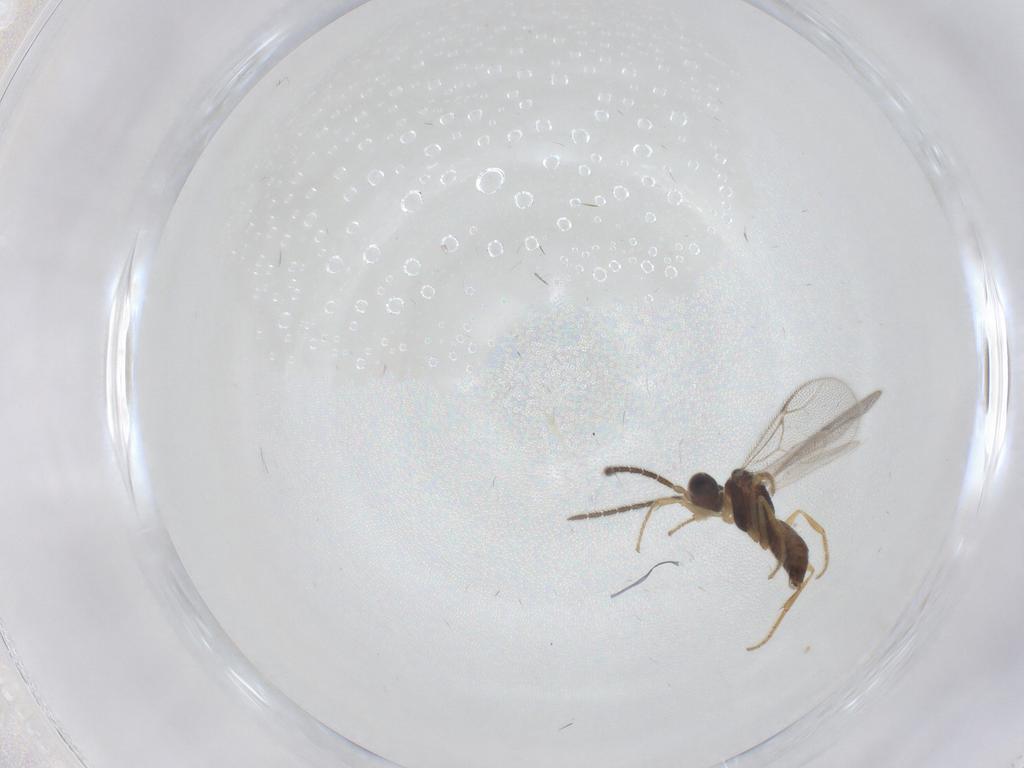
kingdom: Animalia
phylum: Arthropoda
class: Insecta
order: Hymenoptera
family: Dryinidae
